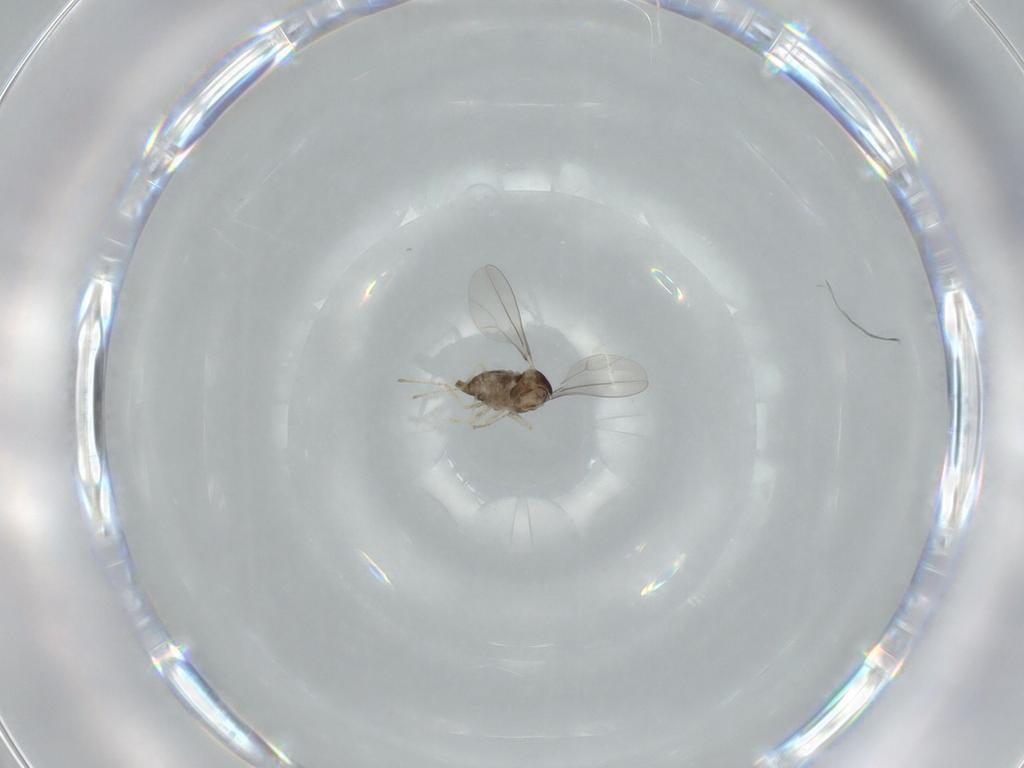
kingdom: Animalia
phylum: Arthropoda
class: Insecta
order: Diptera
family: Cecidomyiidae
